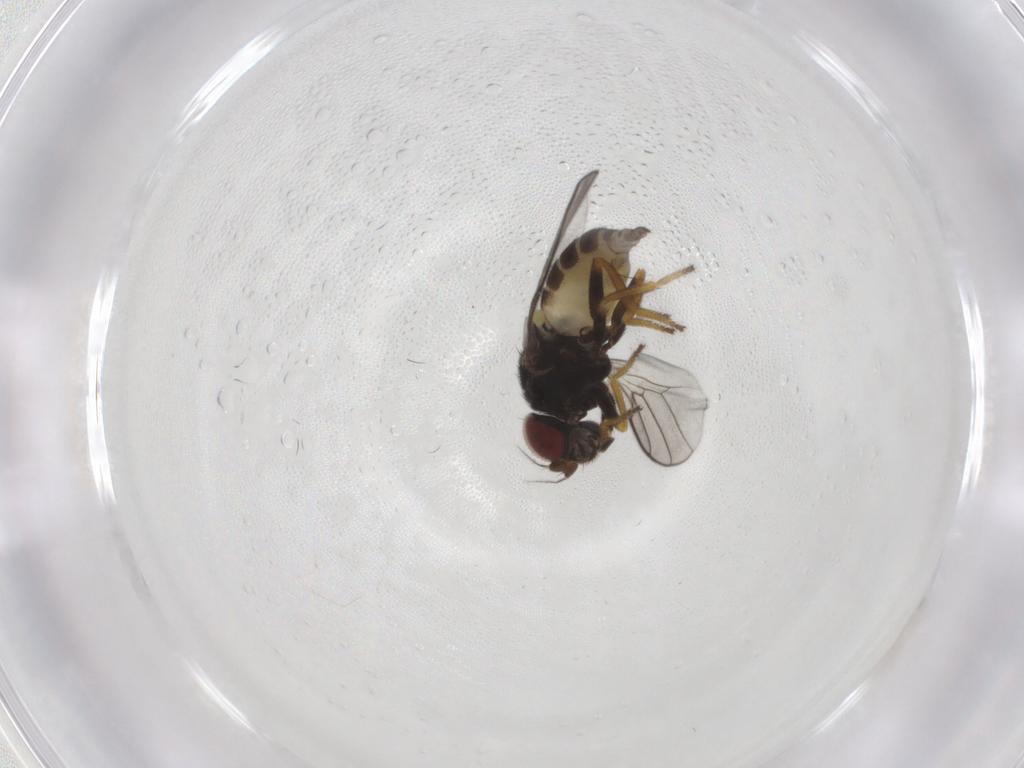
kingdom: Animalia
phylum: Arthropoda
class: Insecta
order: Diptera
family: Chloropidae
